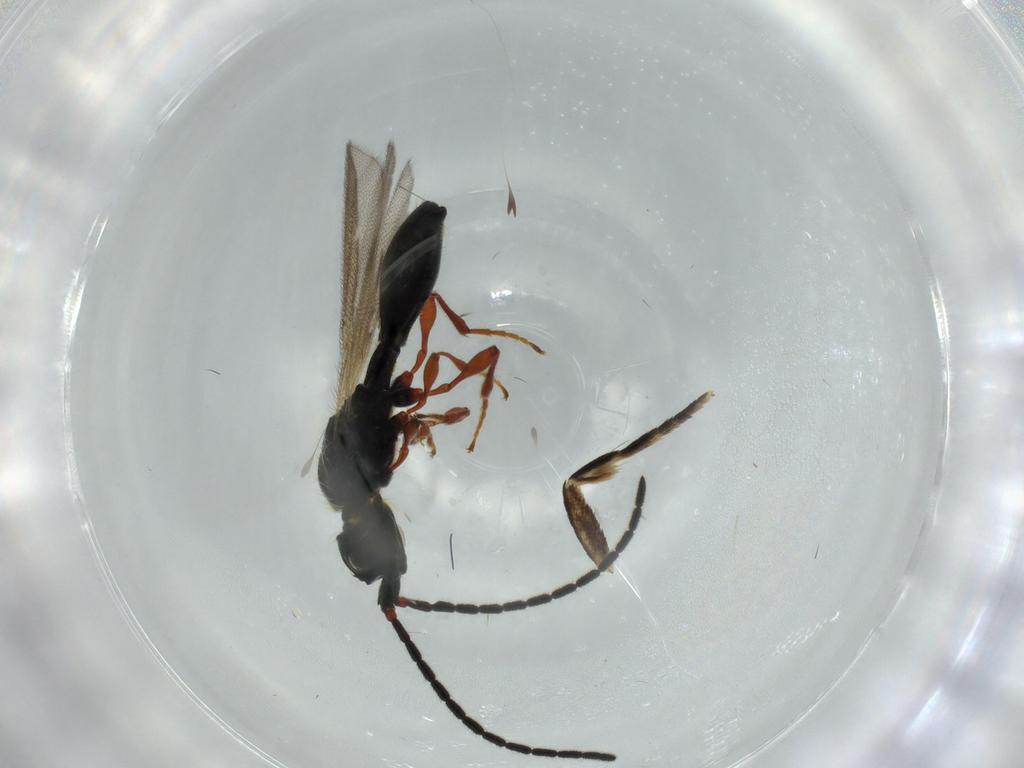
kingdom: Animalia
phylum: Arthropoda
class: Insecta
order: Hymenoptera
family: Diapriidae
